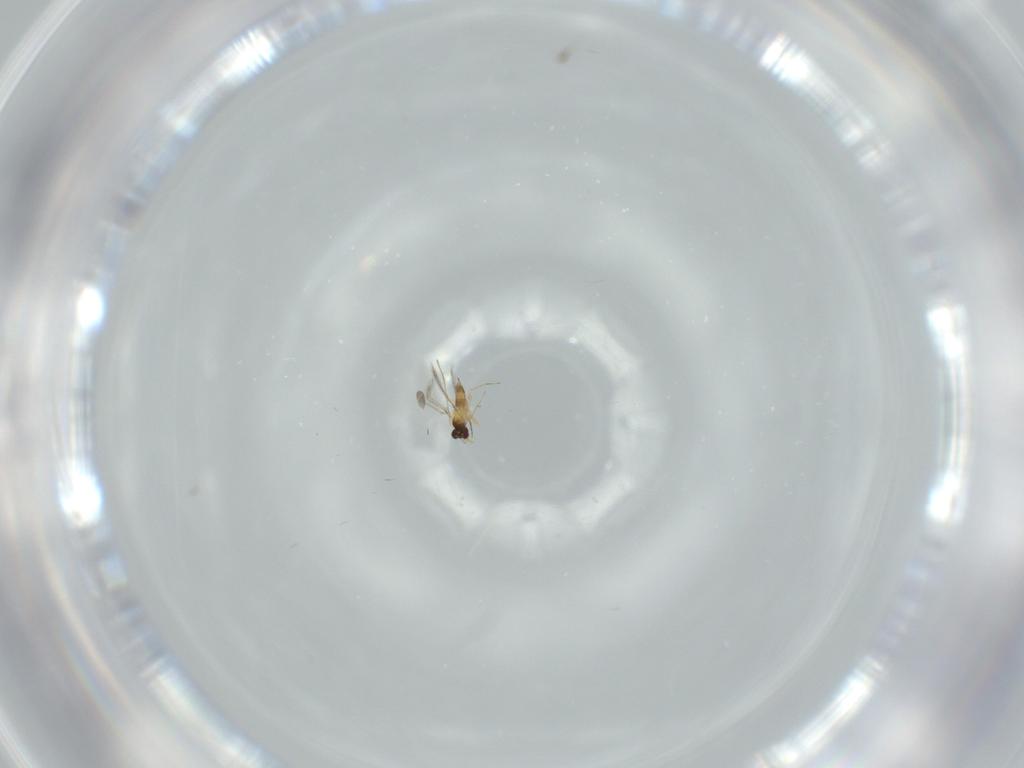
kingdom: Animalia
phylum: Arthropoda
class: Insecta
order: Hymenoptera
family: Mymaridae
